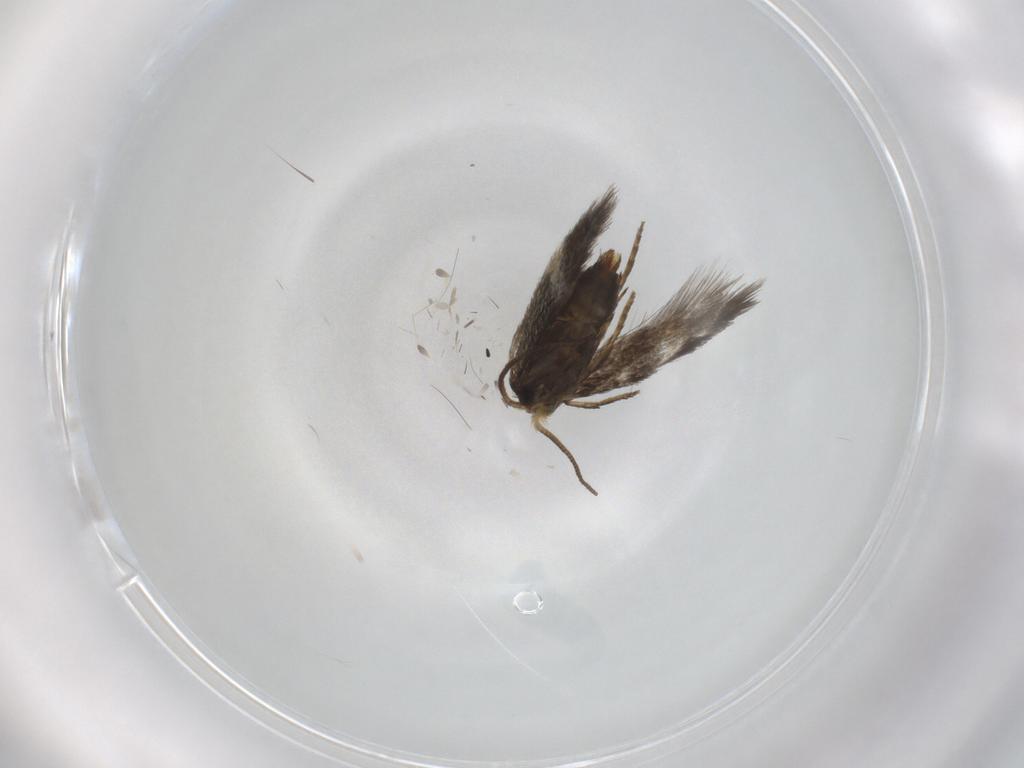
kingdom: Animalia
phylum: Arthropoda
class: Insecta
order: Lepidoptera
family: Nepticulidae
